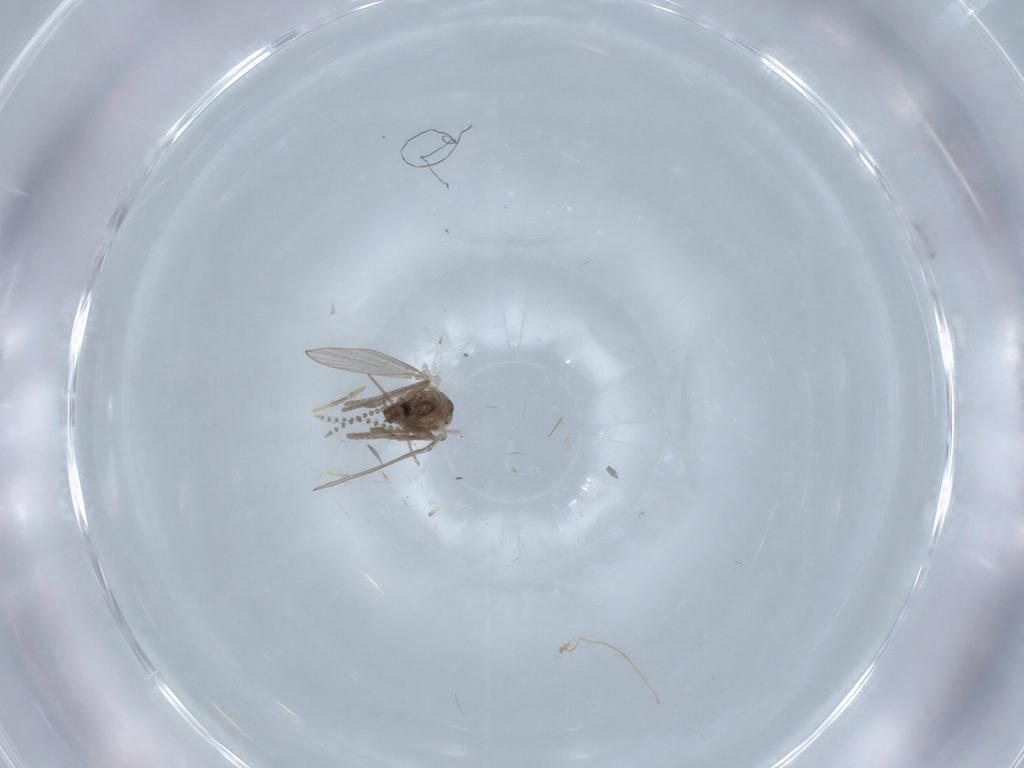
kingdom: Animalia
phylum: Arthropoda
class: Insecta
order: Diptera
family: Psychodidae
